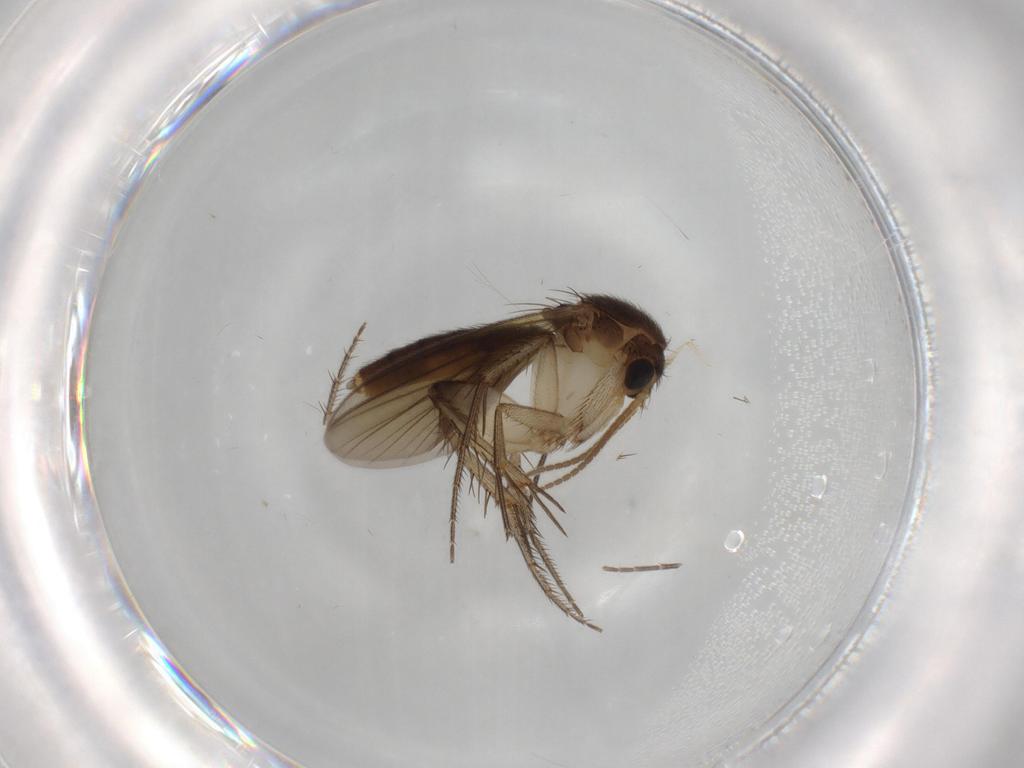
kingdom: Animalia
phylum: Arthropoda
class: Insecta
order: Diptera
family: Mycetophilidae
